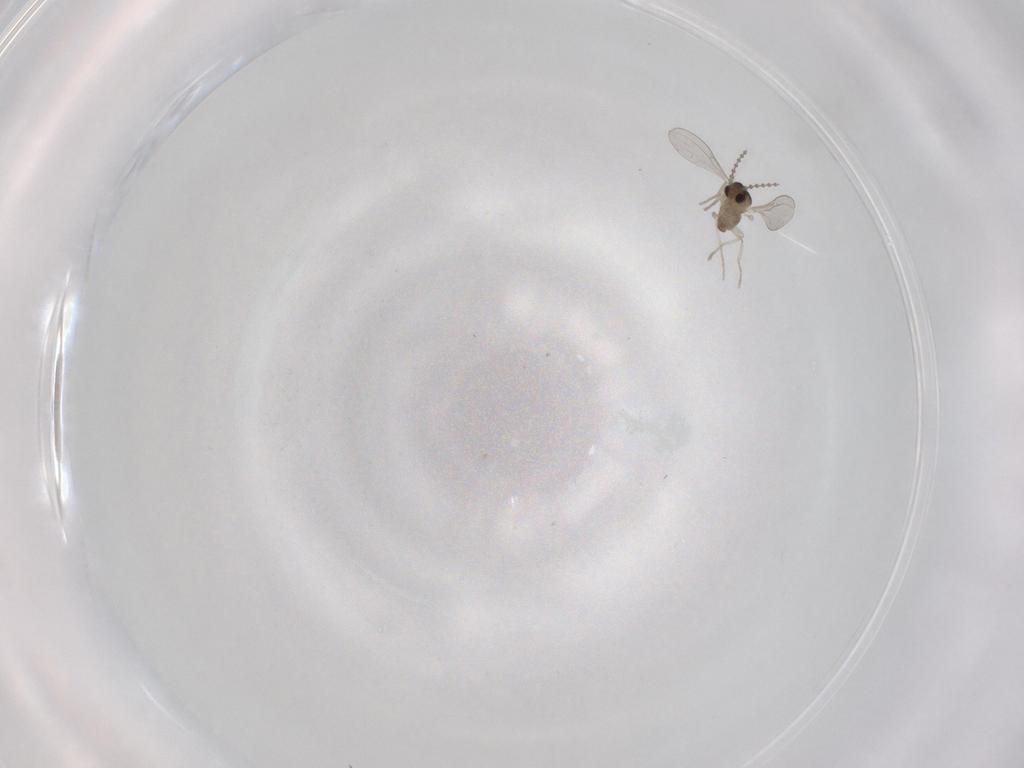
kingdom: Animalia
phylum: Arthropoda
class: Insecta
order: Diptera
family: Cecidomyiidae
